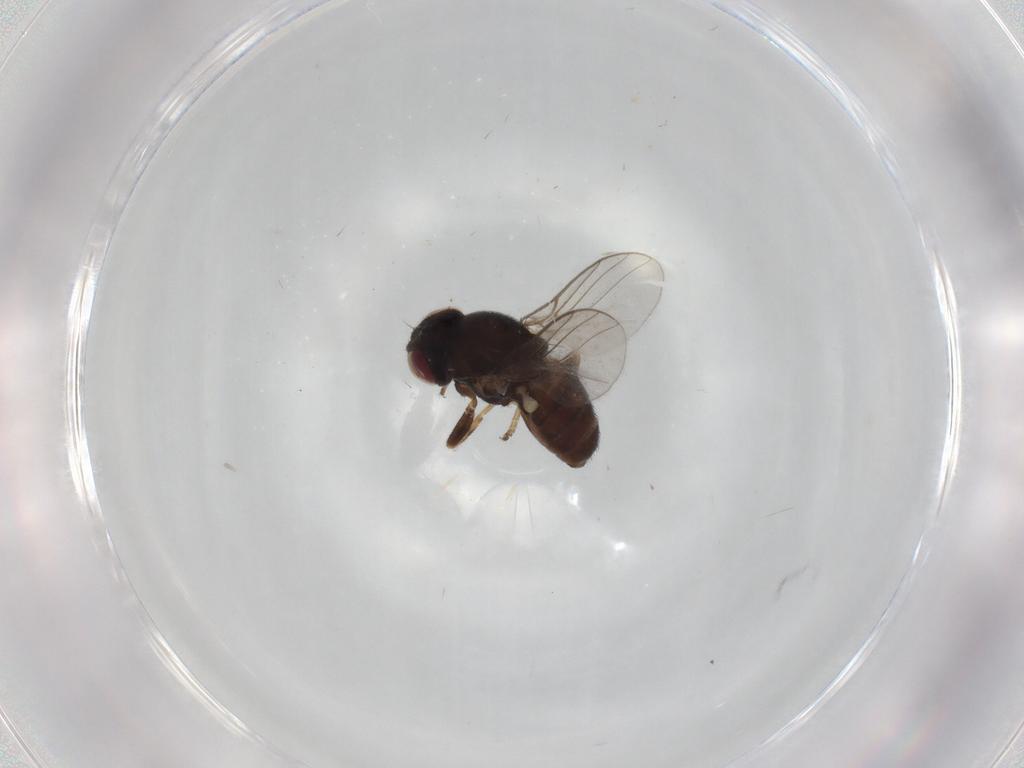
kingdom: Animalia
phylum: Arthropoda
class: Insecta
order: Diptera
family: Chloropidae
